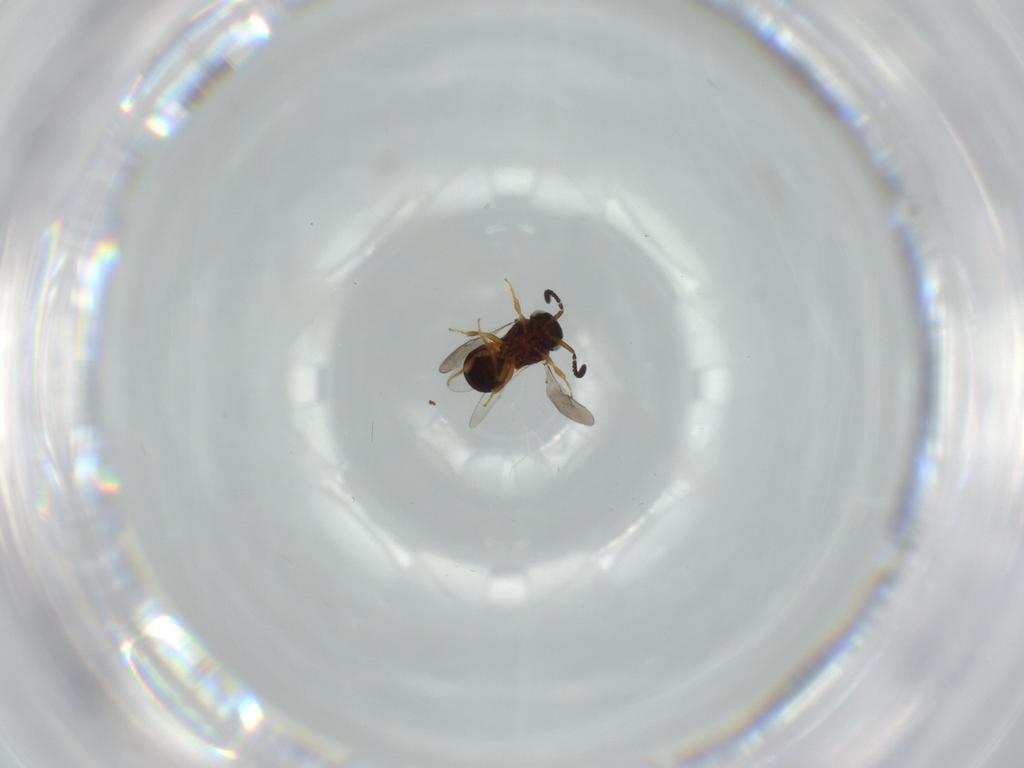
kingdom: Animalia
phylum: Arthropoda
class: Insecta
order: Hymenoptera
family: Scelionidae
